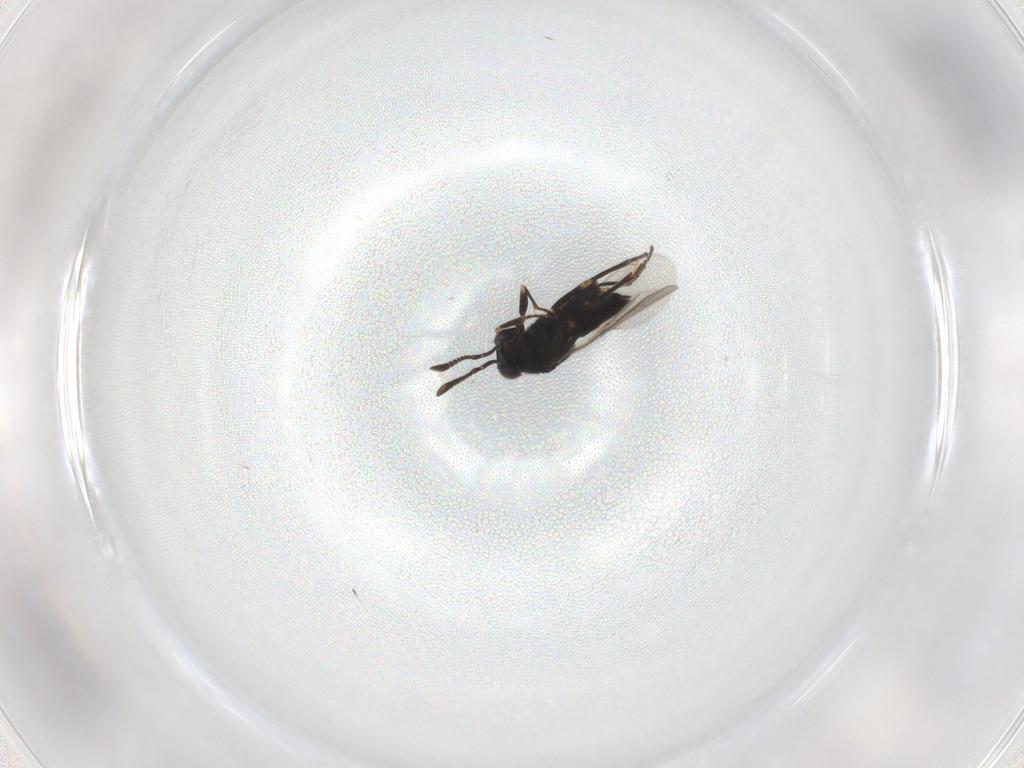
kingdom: Animalia
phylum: Arthropoda
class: Insecta
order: Hymenoptera
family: Encyrtidae
